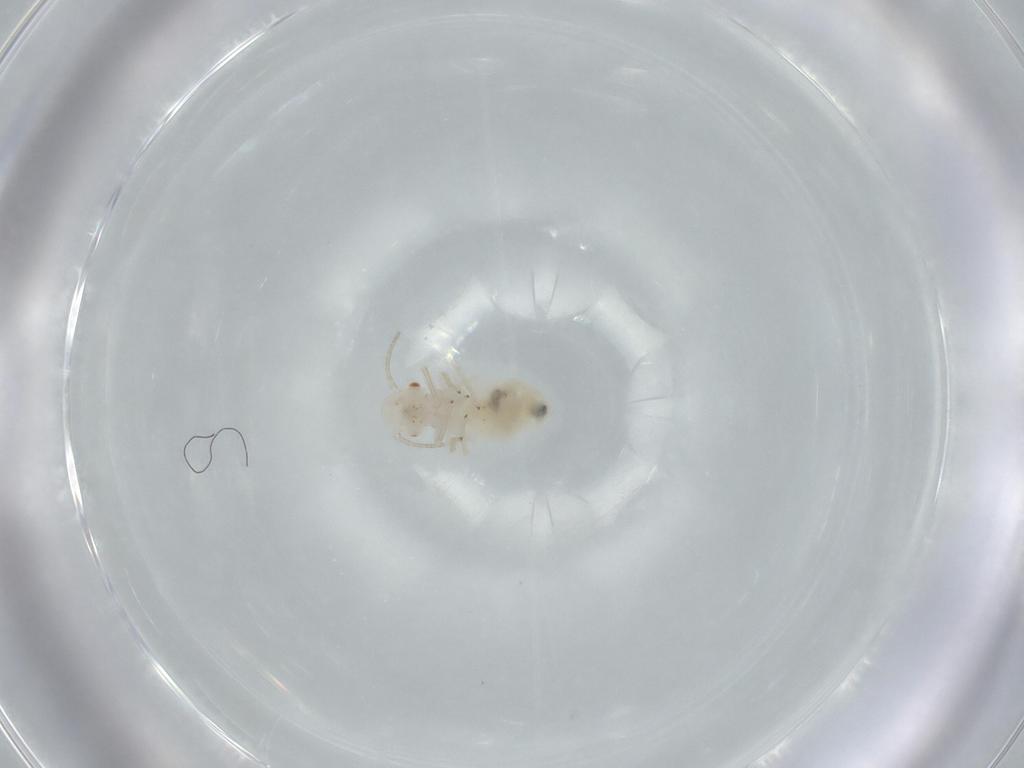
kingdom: Animalia
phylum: Arthropoda
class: Insecta
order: Psocodea
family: Caeciliusidae
